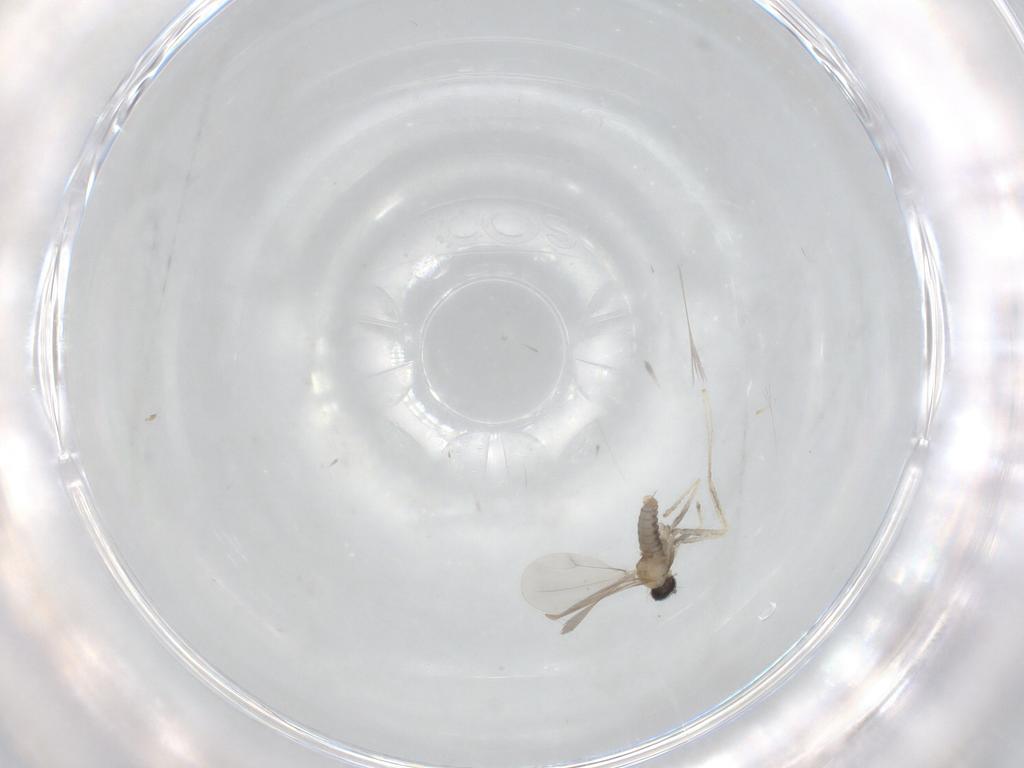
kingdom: Animalia
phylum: Arthropoda
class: Insecta
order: Diptera
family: Cecidomyiidae
